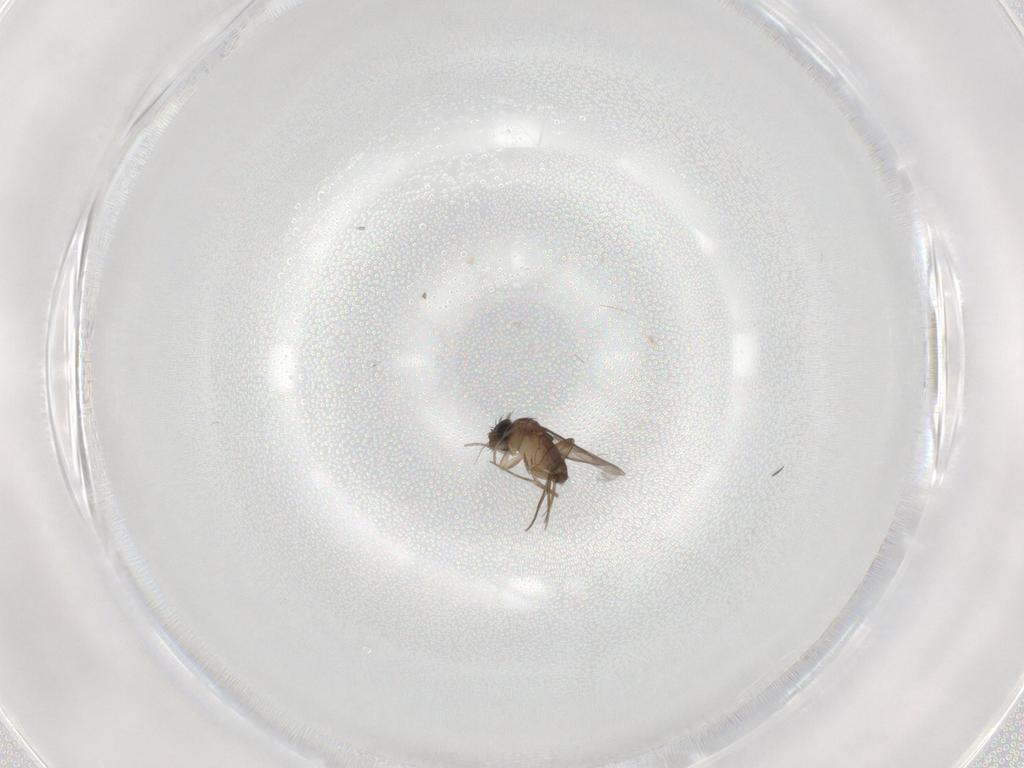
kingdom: Animalia
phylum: Arthropoda
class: Insecta
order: Diptera
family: Phoridae
